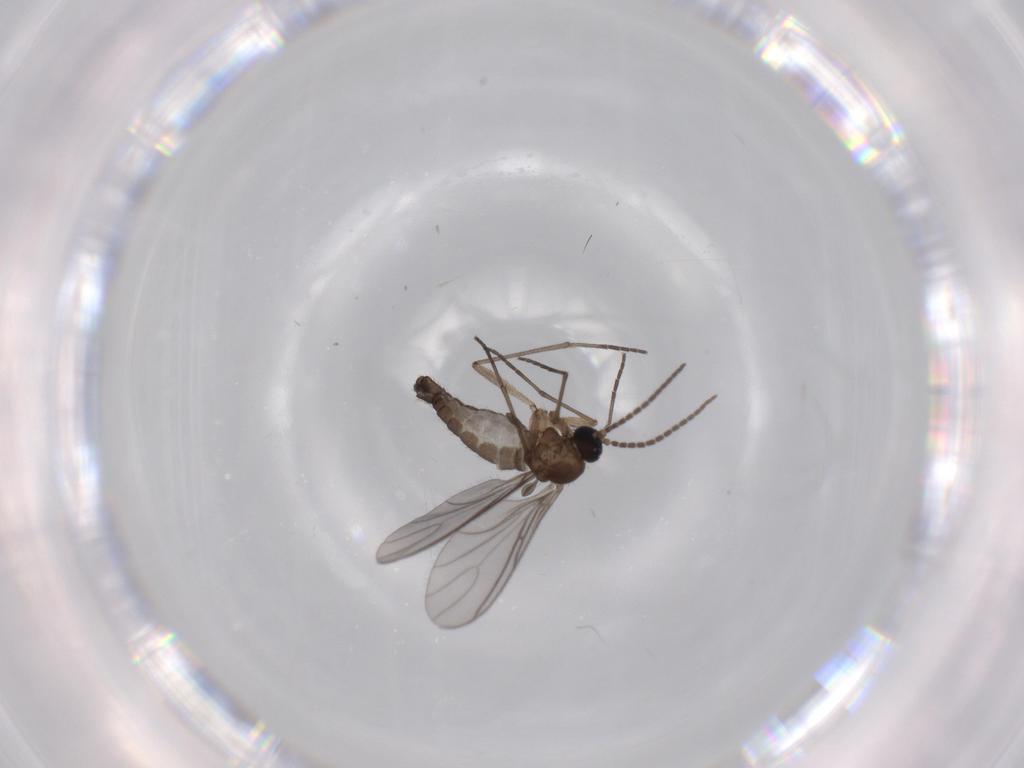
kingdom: Animalia
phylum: Arthropoda
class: Insecta
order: Diptera
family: Sciaridae
